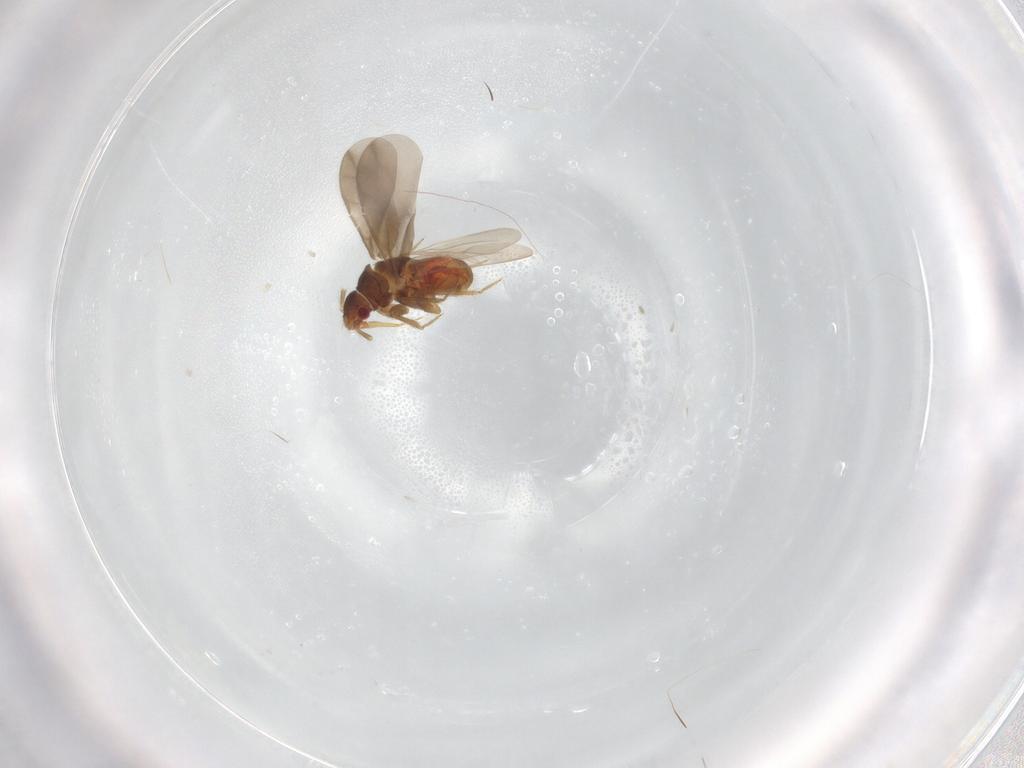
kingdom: Animalia
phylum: Arthropoda
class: Insecta
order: Hemiptera
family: Ceratocombidae
